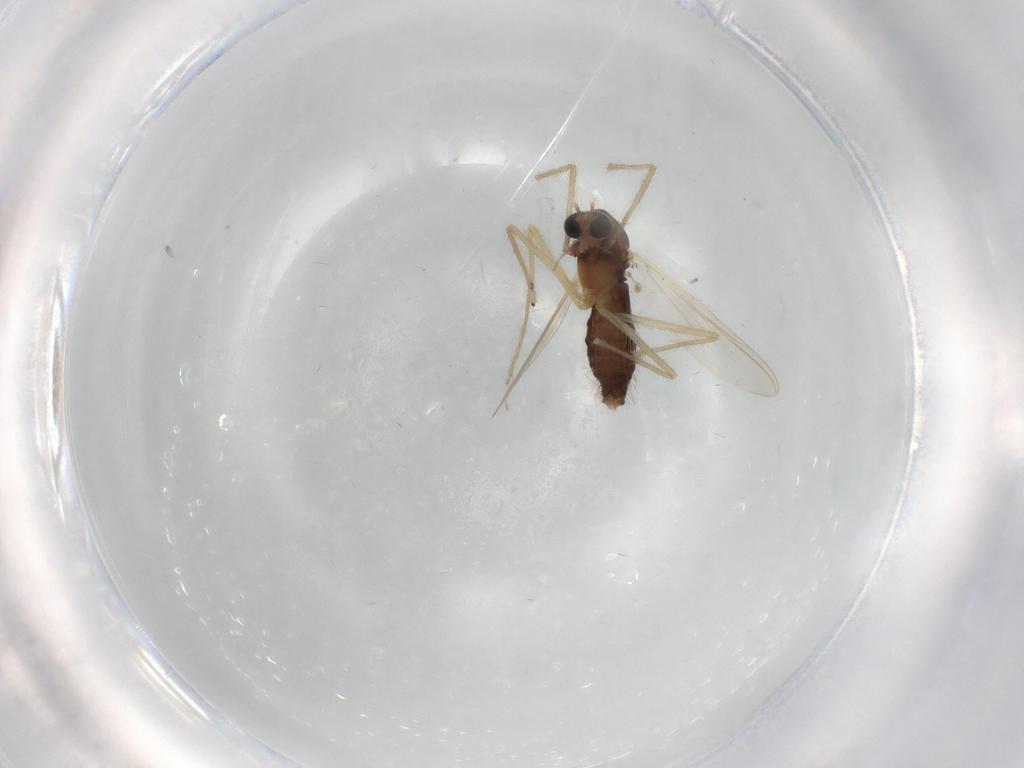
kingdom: Animalia
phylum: Arthropoda
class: Insecta
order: Diptera
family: Chironomidae
